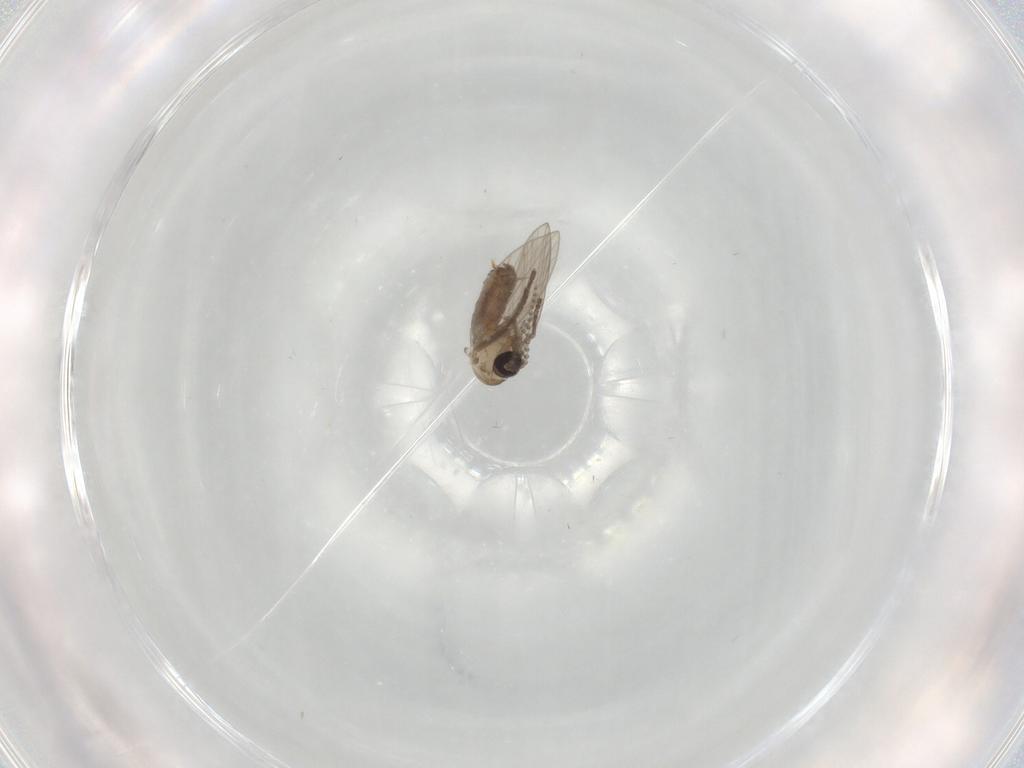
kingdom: Animalia
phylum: Arthropoda
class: Insecta
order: Diptera
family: Psychodidae
